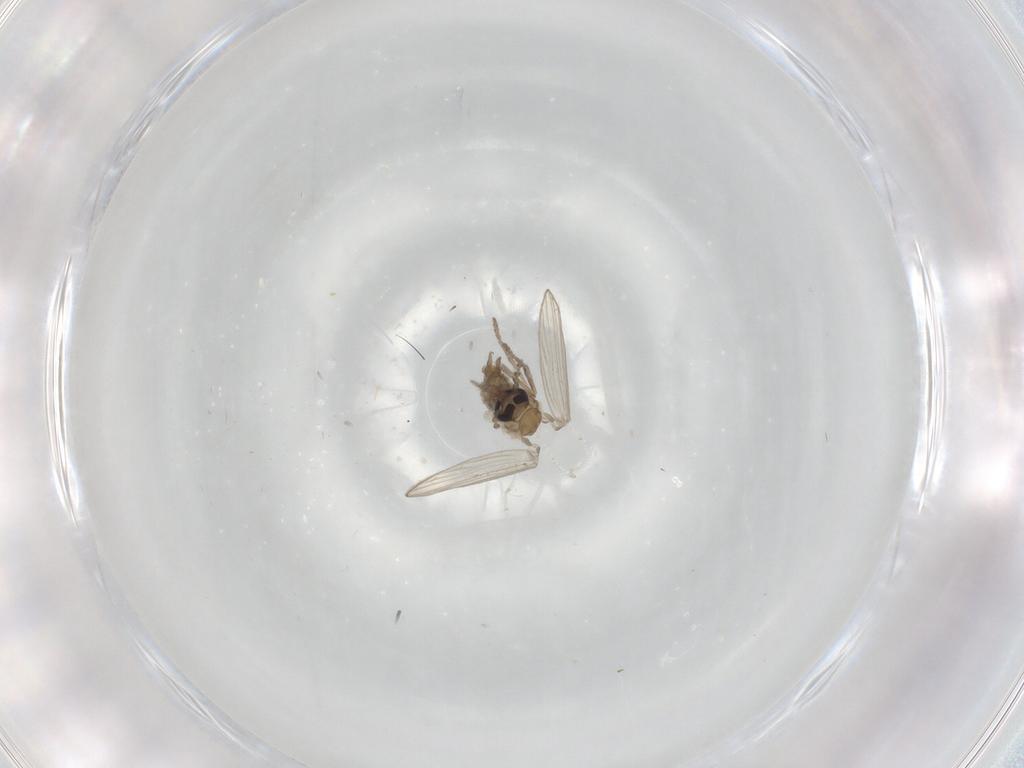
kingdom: Animalia
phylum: Arthropoda
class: Insecta
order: Diptera
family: Psychodidae
